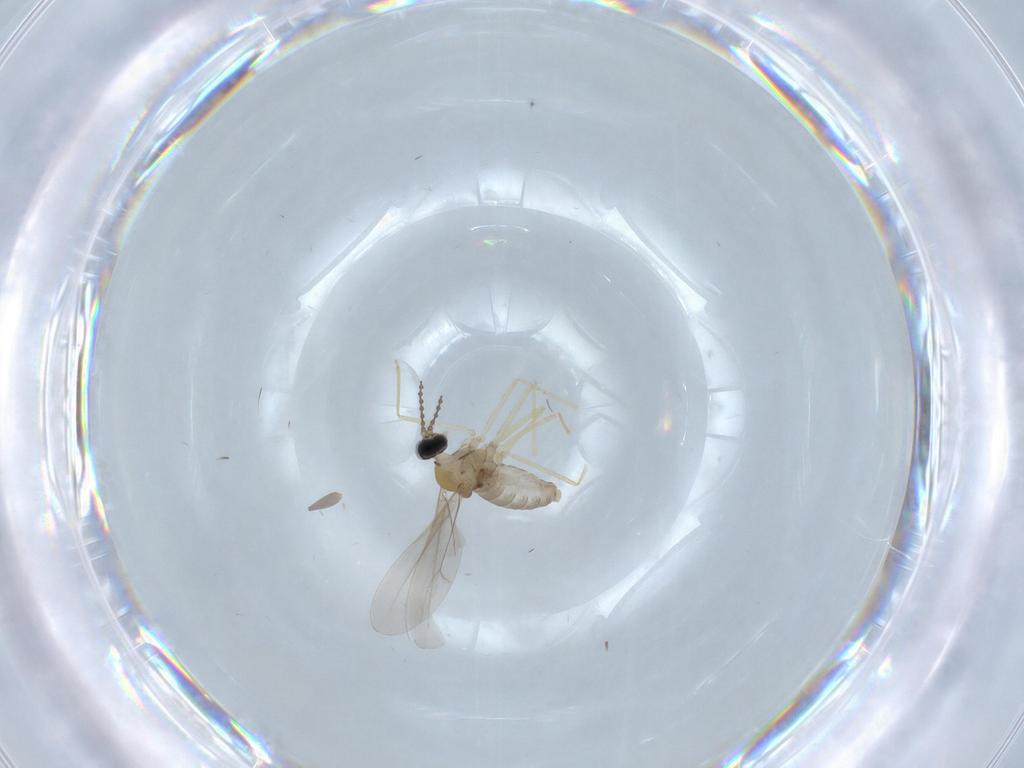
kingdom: Animalia
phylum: Arthropoda
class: Insecta
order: Diptera
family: Cecidomyiidae
